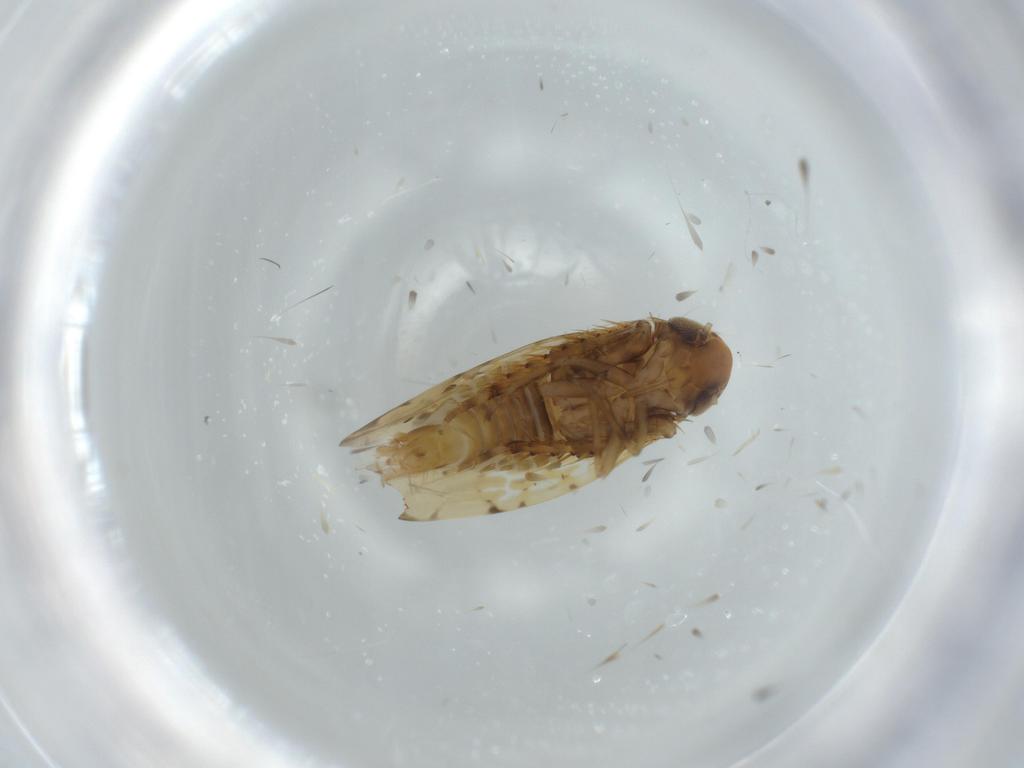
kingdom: Animalia
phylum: Arthropoda
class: Insecta
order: Hemiptera
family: Cicadellidae
